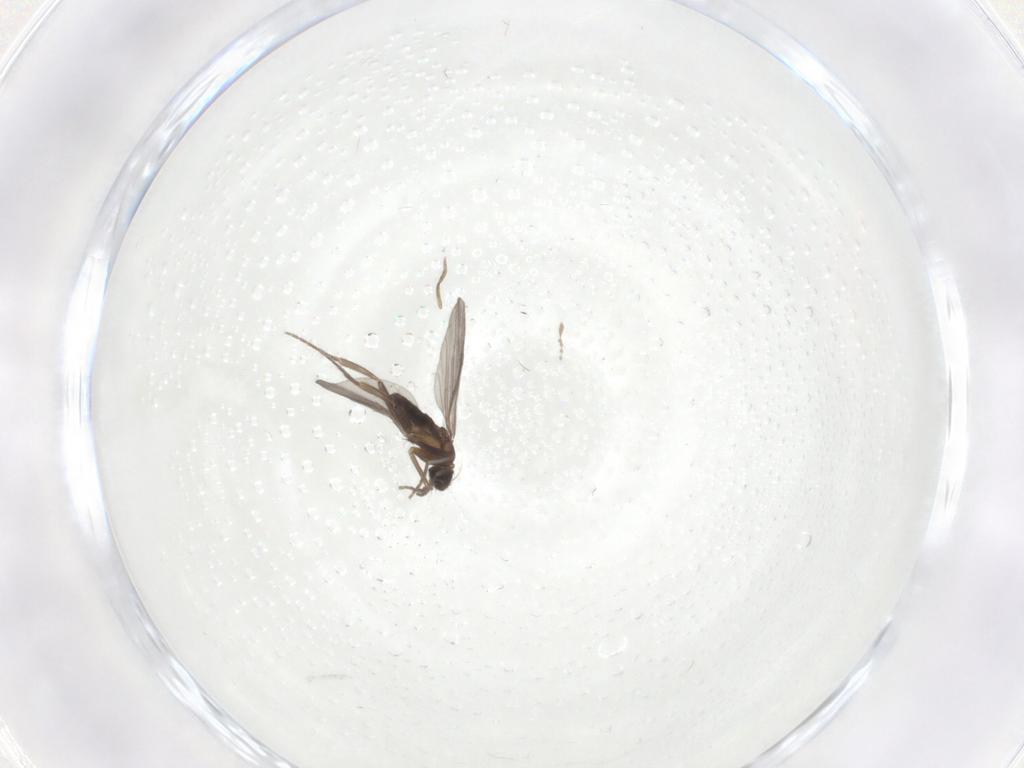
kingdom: Animalia
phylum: Arthropoda
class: Insecta
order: Diptera
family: Phoridae
